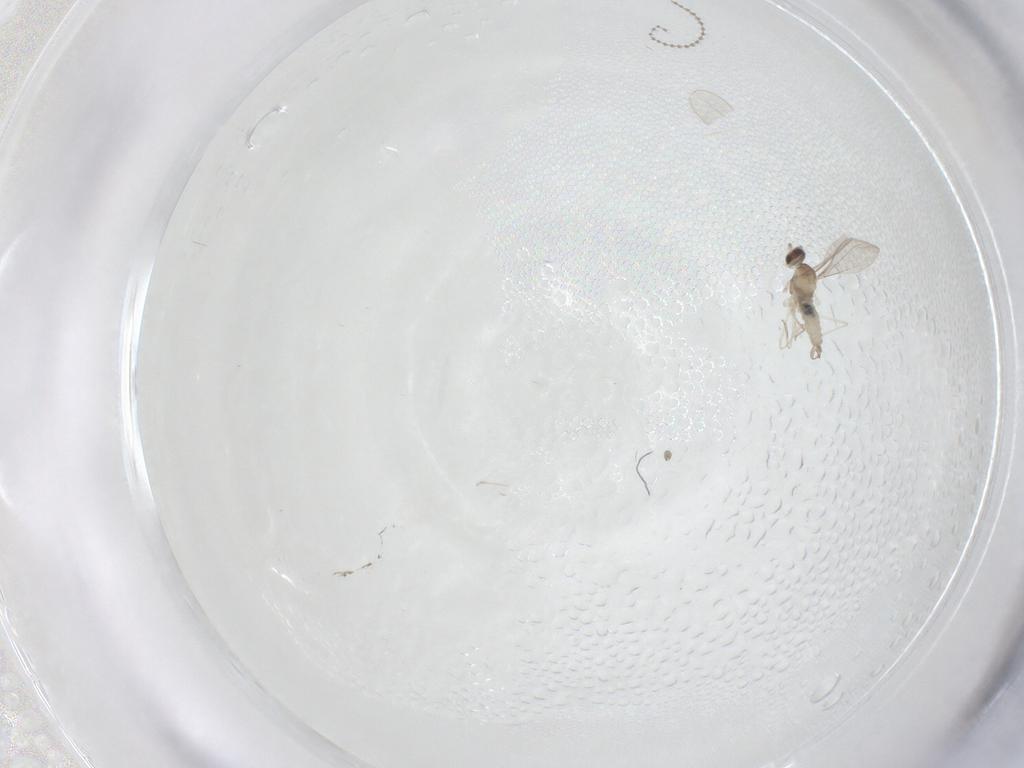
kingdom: Animalia
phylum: Arthropoda
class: Insecta
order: Diptera
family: Cecidomyiidae
